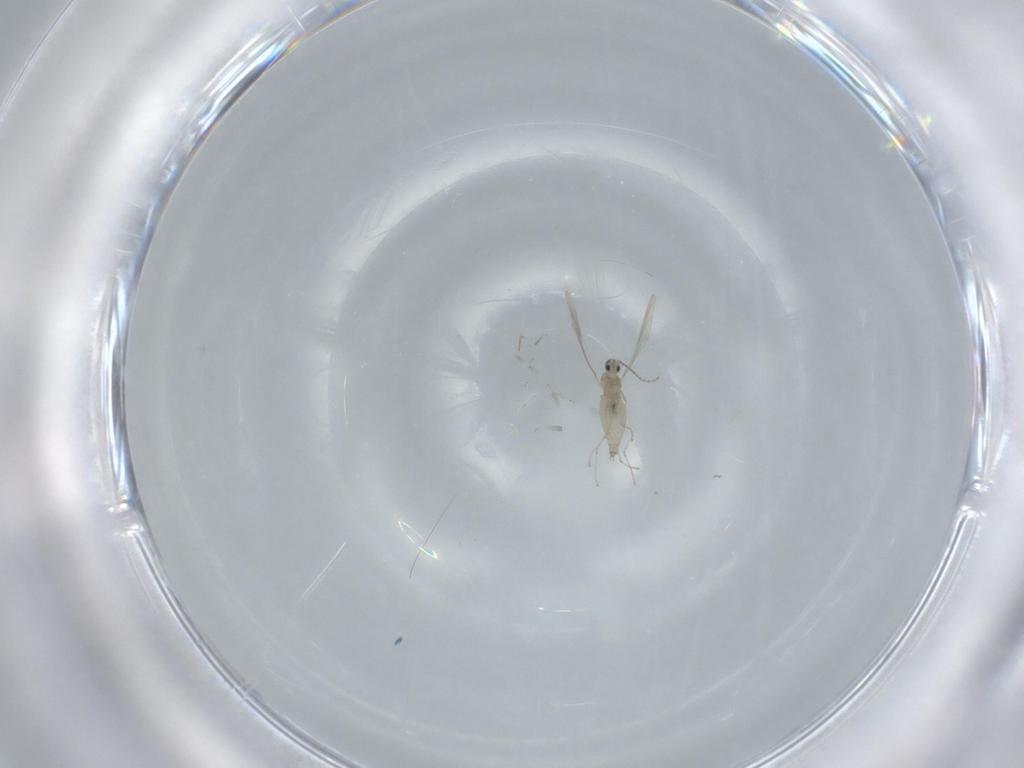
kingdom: Animalia
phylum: Arthropoda
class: Insecta
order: Diptera
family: Cecidomyiidae
